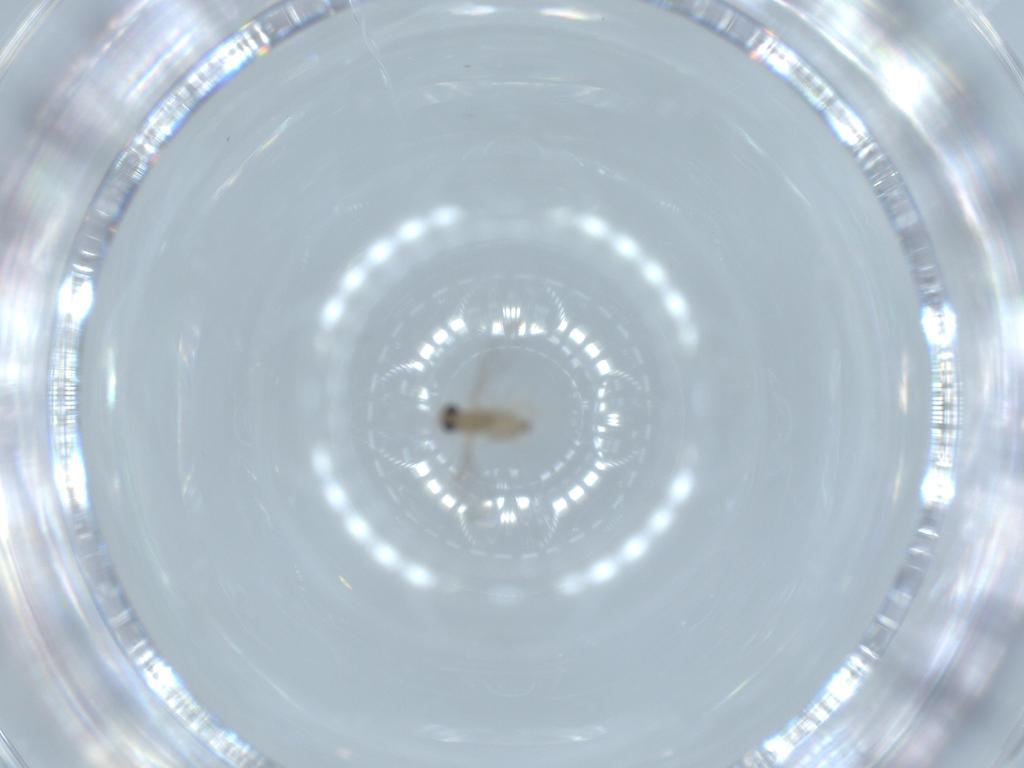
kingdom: Animalia
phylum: Arthropoda
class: Insecta
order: Diptera
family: Cecidomyiidae
